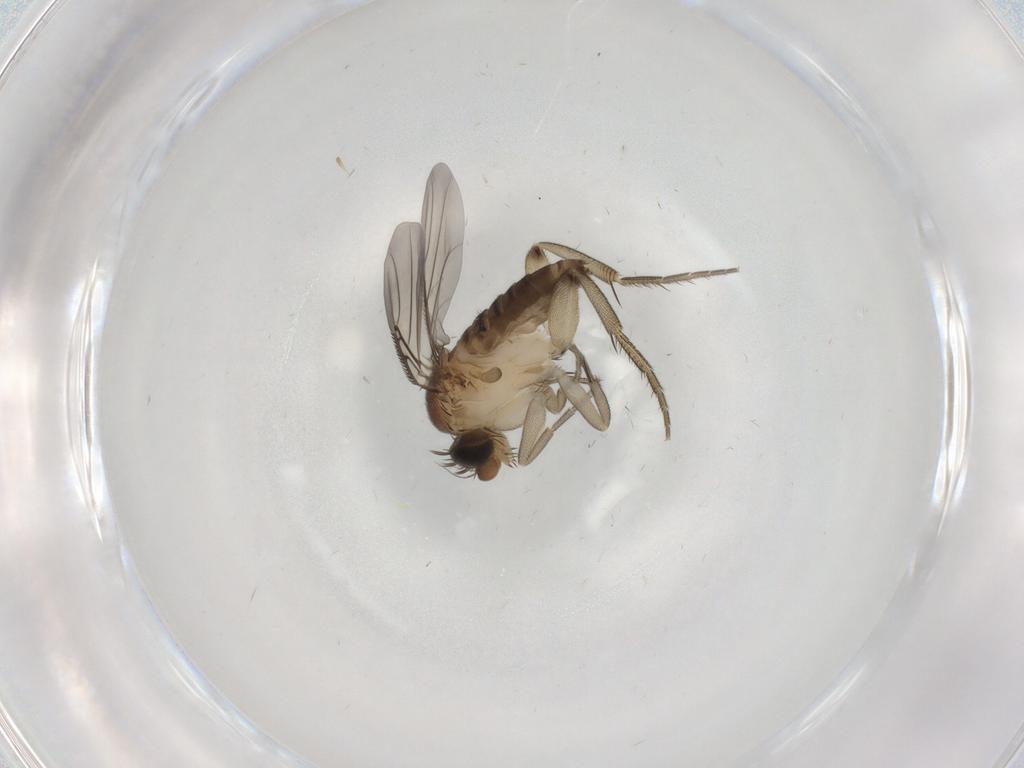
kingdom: Animalia
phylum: Arthropoda
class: Insecta
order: Diptera
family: Phoridae
